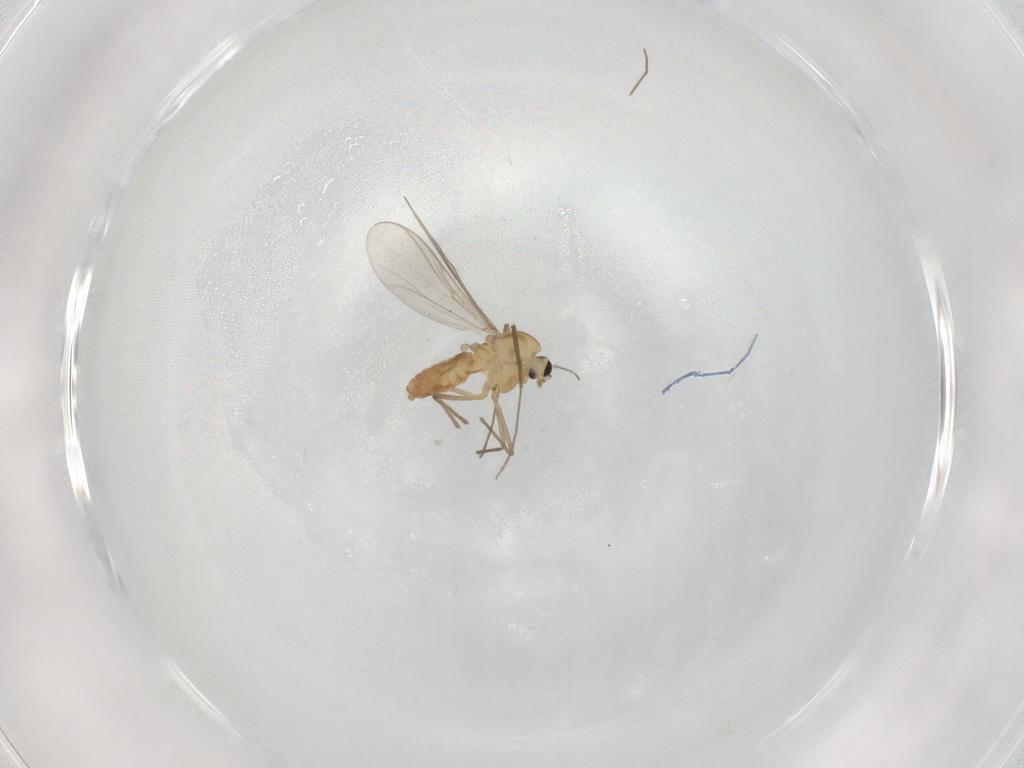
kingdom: Animalia
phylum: Arthropoda
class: Insecta
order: Diptera
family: Chironomidae
